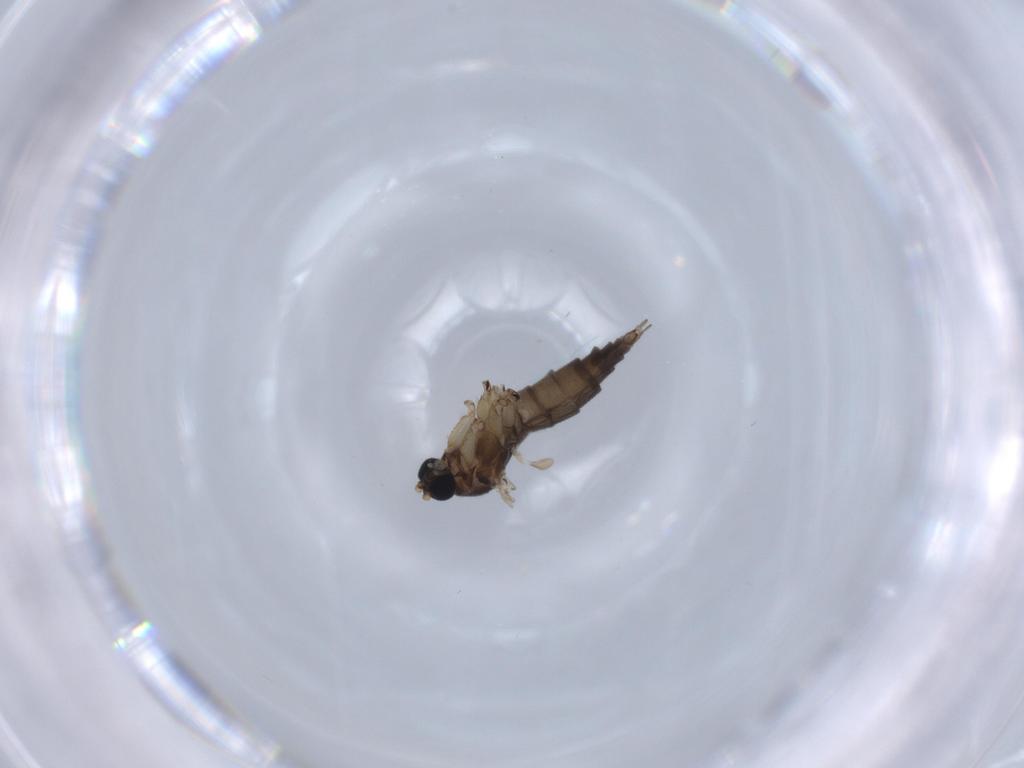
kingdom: Animalia
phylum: Arthropoda
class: Insecta
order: Diptera
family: Sciaridae
